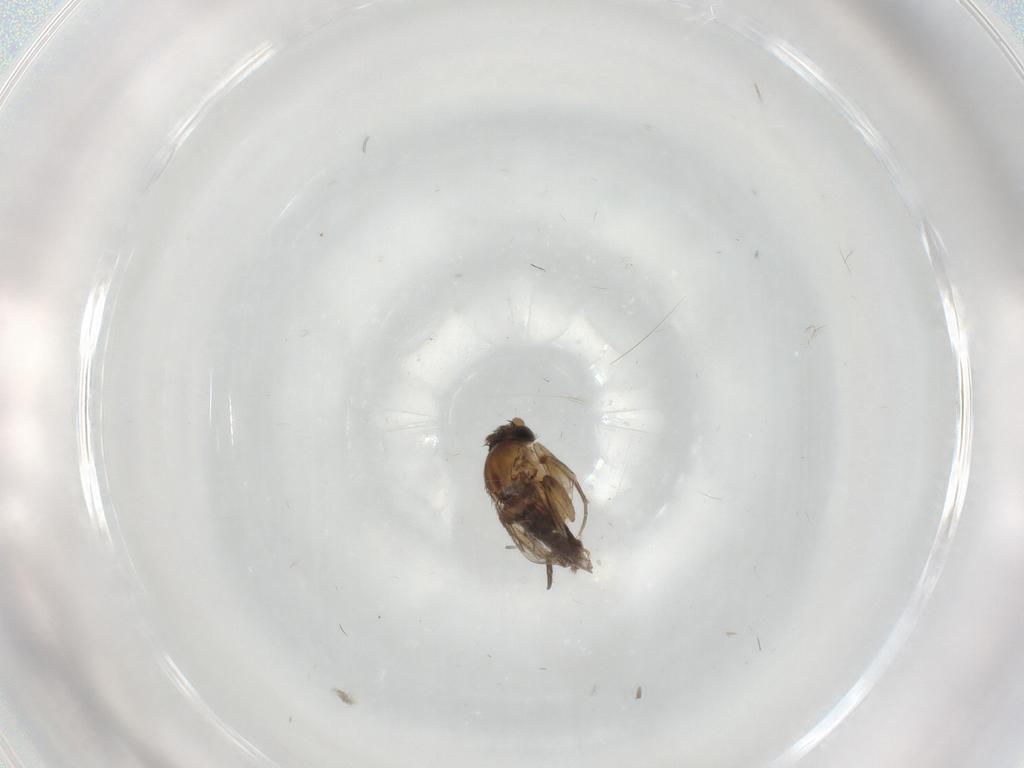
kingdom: Animalia
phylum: Arthropoda
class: Insecta
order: Diptera
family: Phoridae
